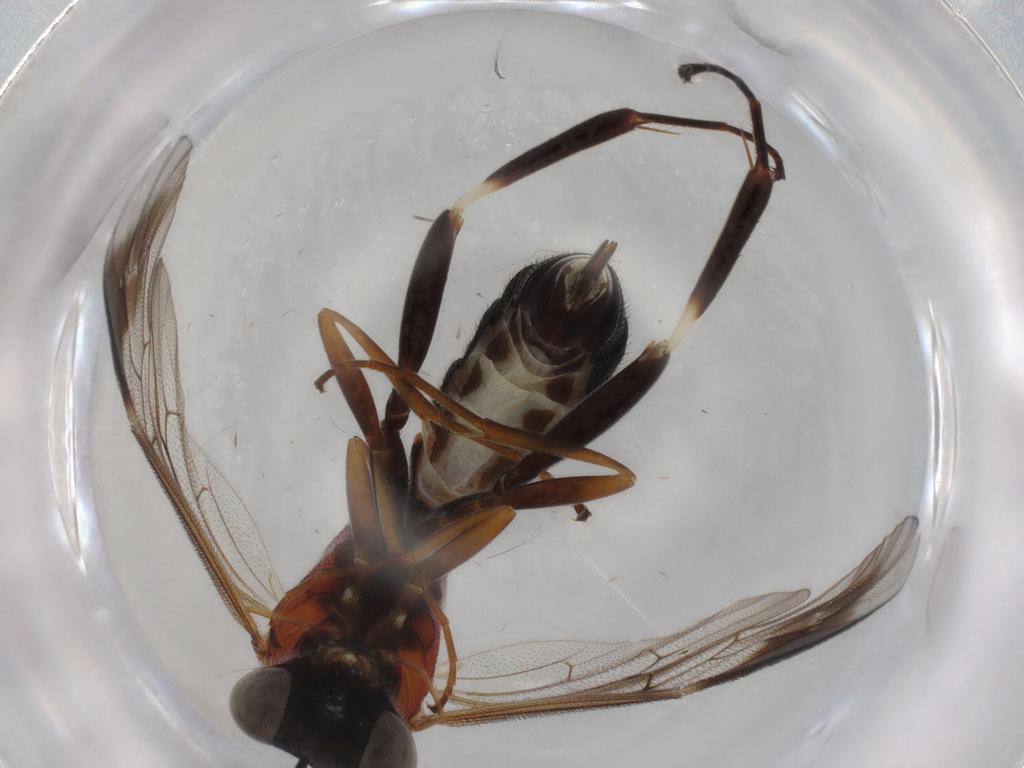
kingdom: Animalia
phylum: Arthropoda
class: Insecta
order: Hymenoptera
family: Ichneumonidae
